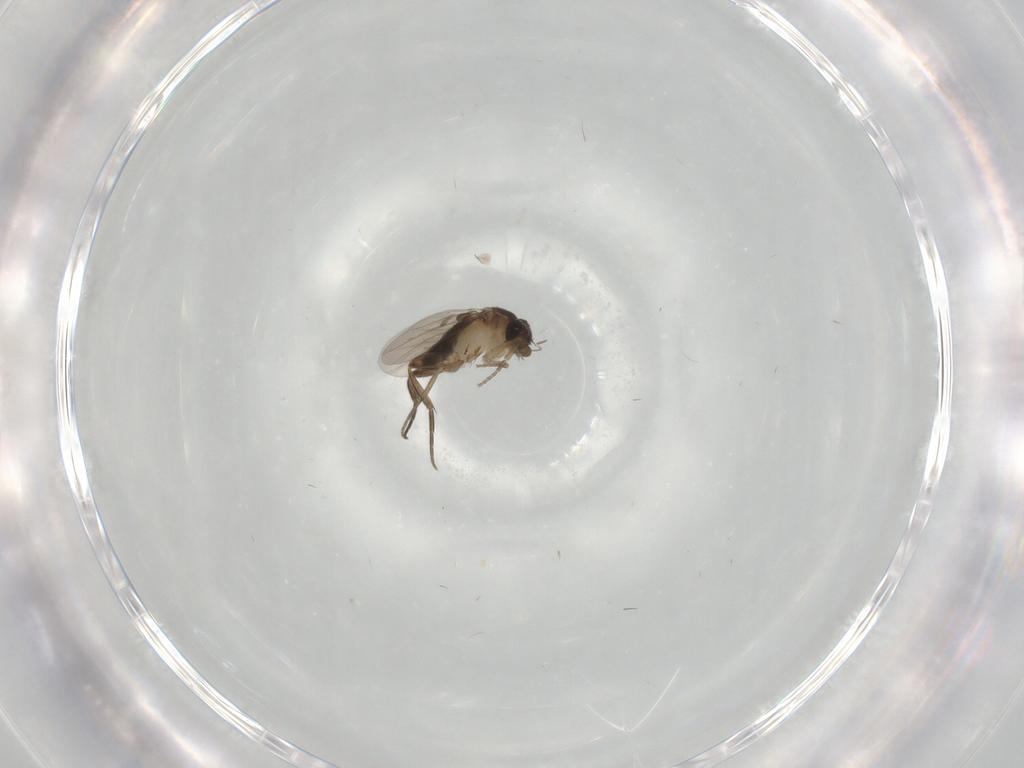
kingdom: Animalia
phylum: Arthropoda
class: Insecta
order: Diptera
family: Phoridae
